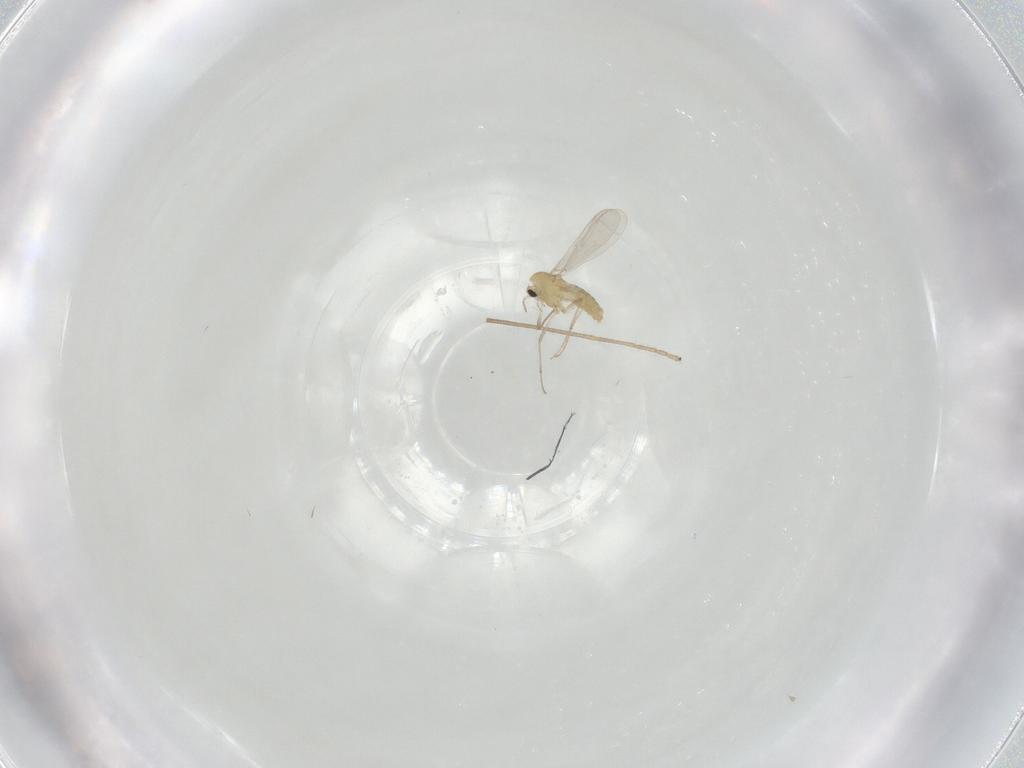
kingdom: Animalia
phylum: Arthropoda
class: Insecta
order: Diptera
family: Chironomidae
